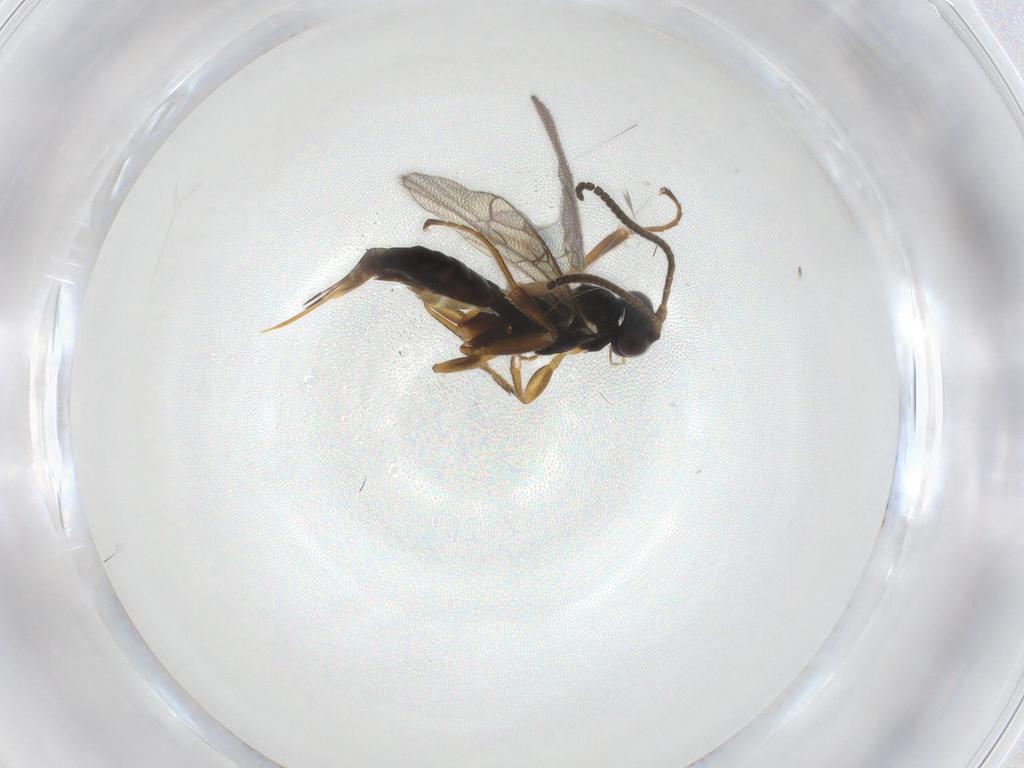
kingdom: Animalia
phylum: Arthropoda
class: Insecta
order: Hymenoptera
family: Ichneumonidae
